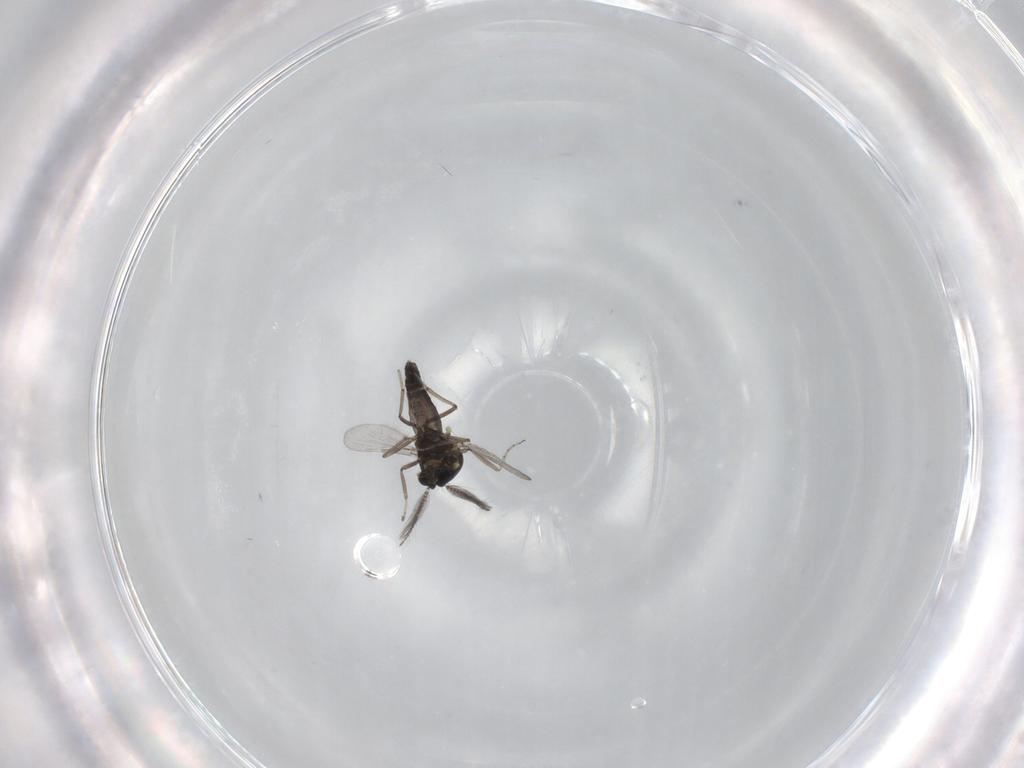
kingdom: Animalia
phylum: Arthropoda
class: Insecta
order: Diptera
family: Ceratopogonidae
